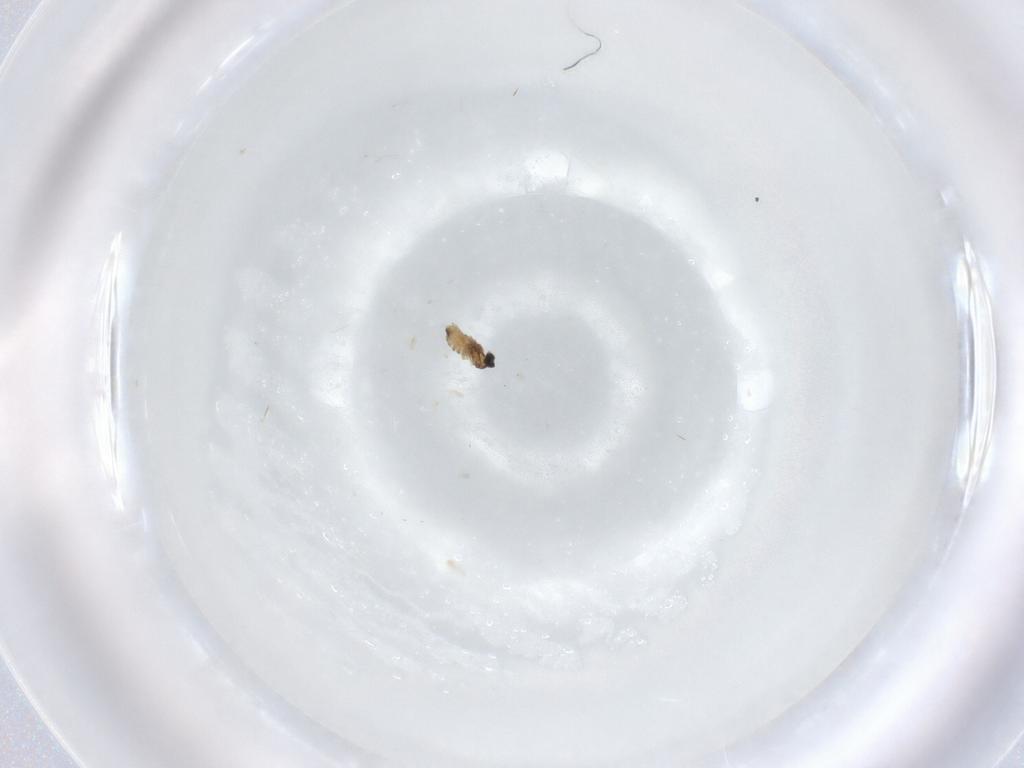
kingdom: Animalia
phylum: Arthropoda
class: Insecta
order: Diptera
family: Cecidomyiidae
